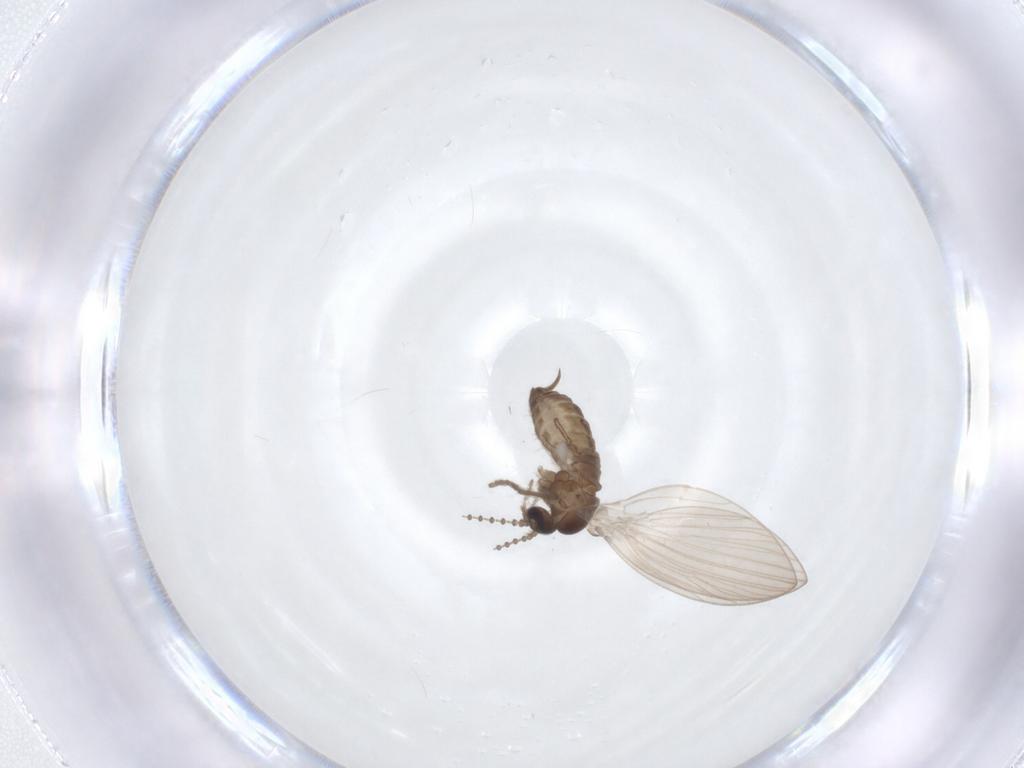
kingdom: Animalia
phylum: Arthropoda
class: Insecta
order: Diptera
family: Psychodidae
